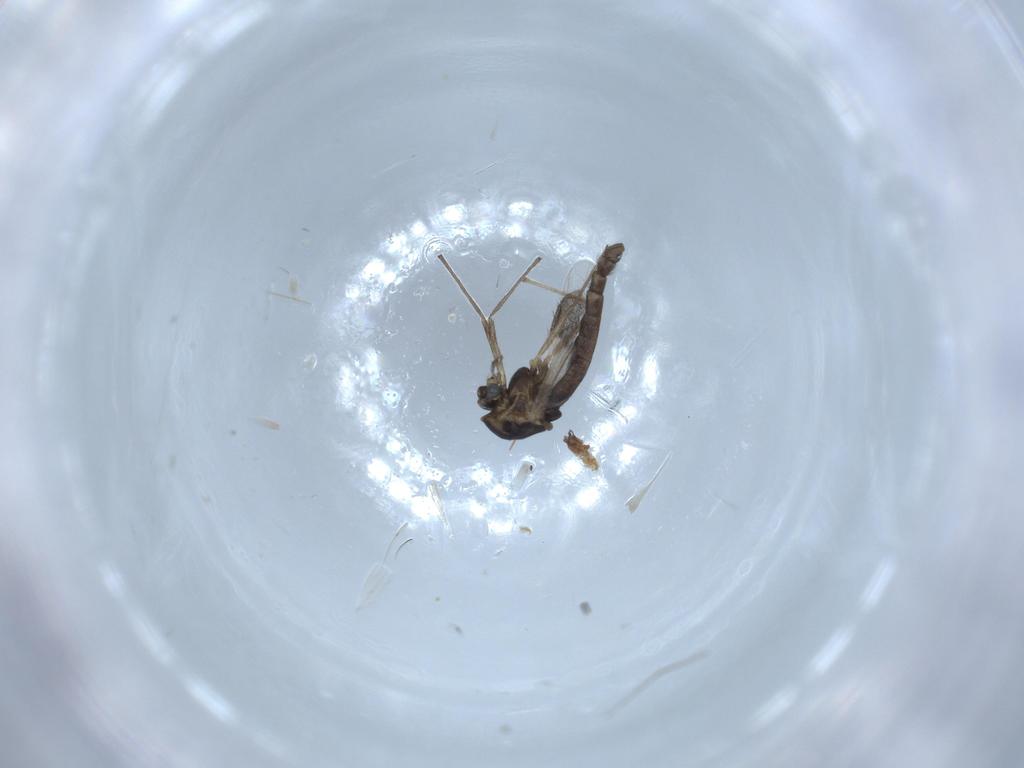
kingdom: Animalia
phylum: Arthropoda
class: Insecta
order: Diptera
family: Chironomidae
